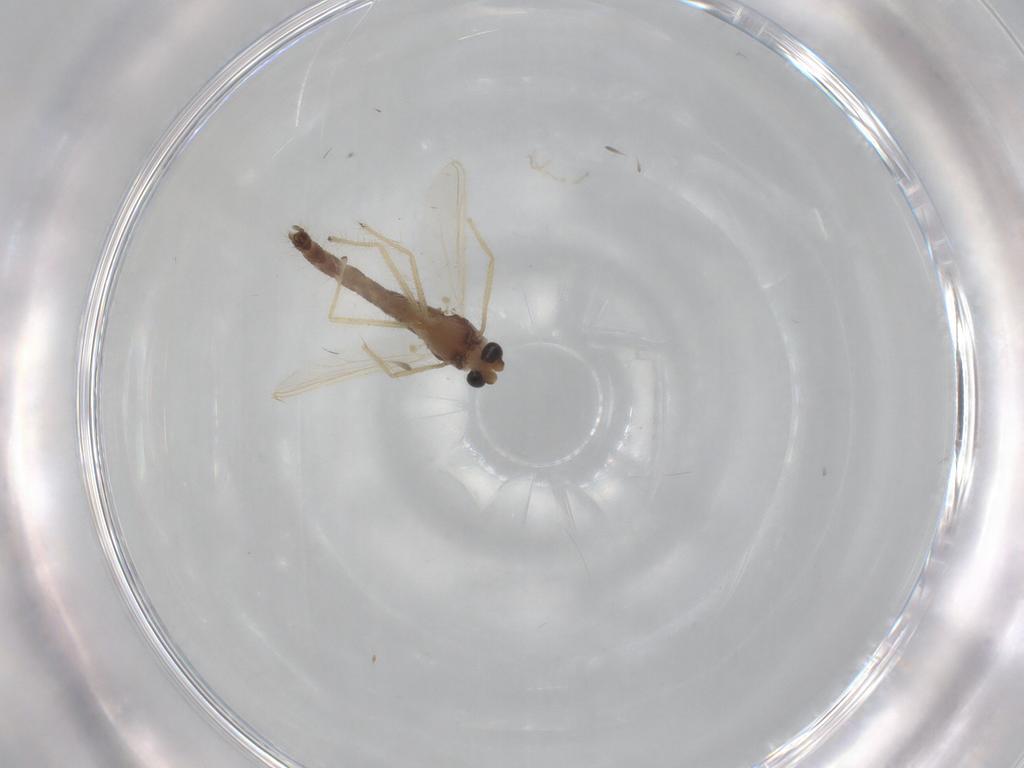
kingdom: Animalia
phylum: Arthropoda
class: Insecta
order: Diptera
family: Chironomidae
